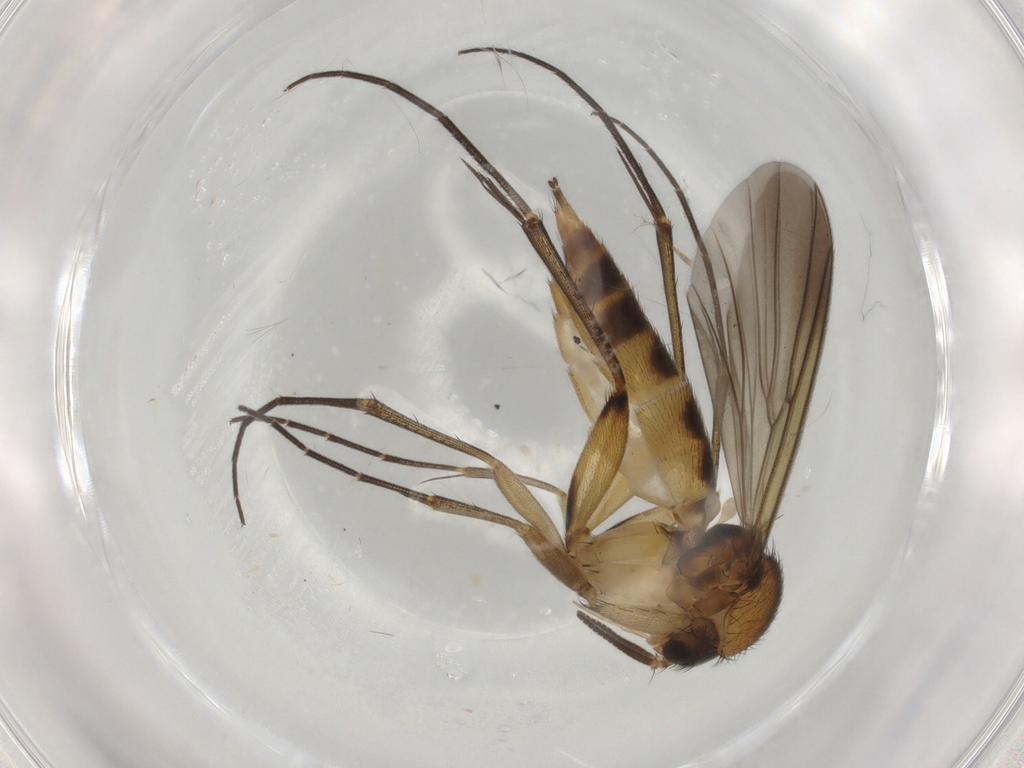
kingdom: Animalia
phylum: Arthropoda
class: Insecta
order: Diptera
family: Mycetophilidae
